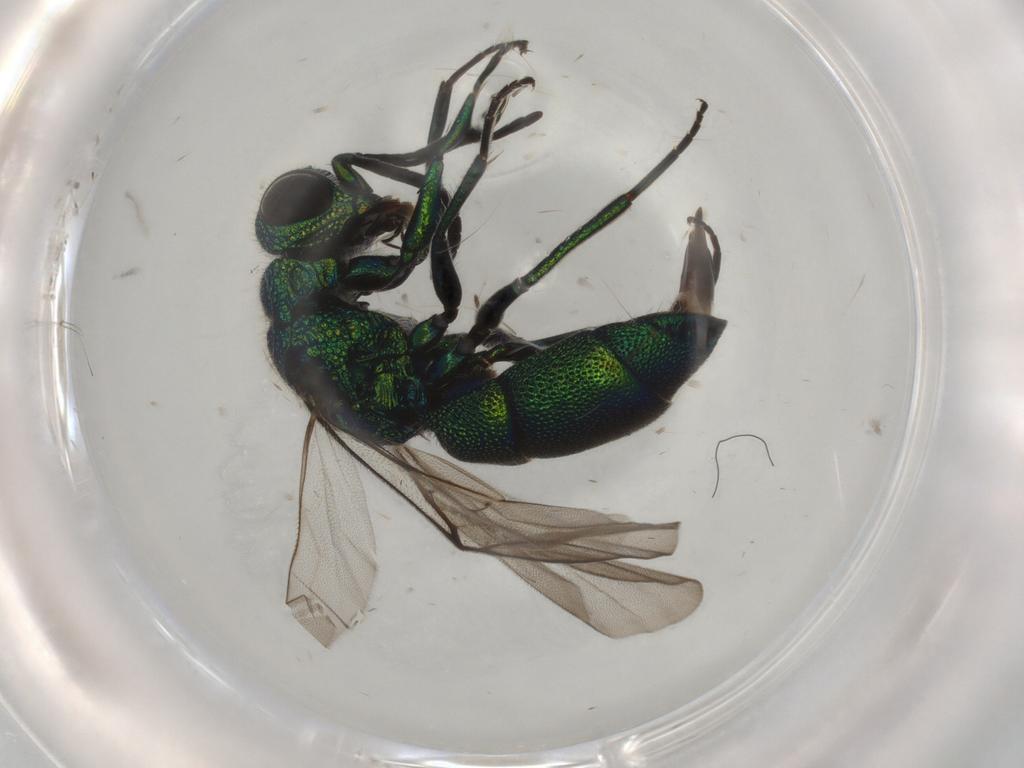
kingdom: Animalia
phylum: Arthropoda
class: Insecta
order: Hymenoptera
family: Chrysididae
